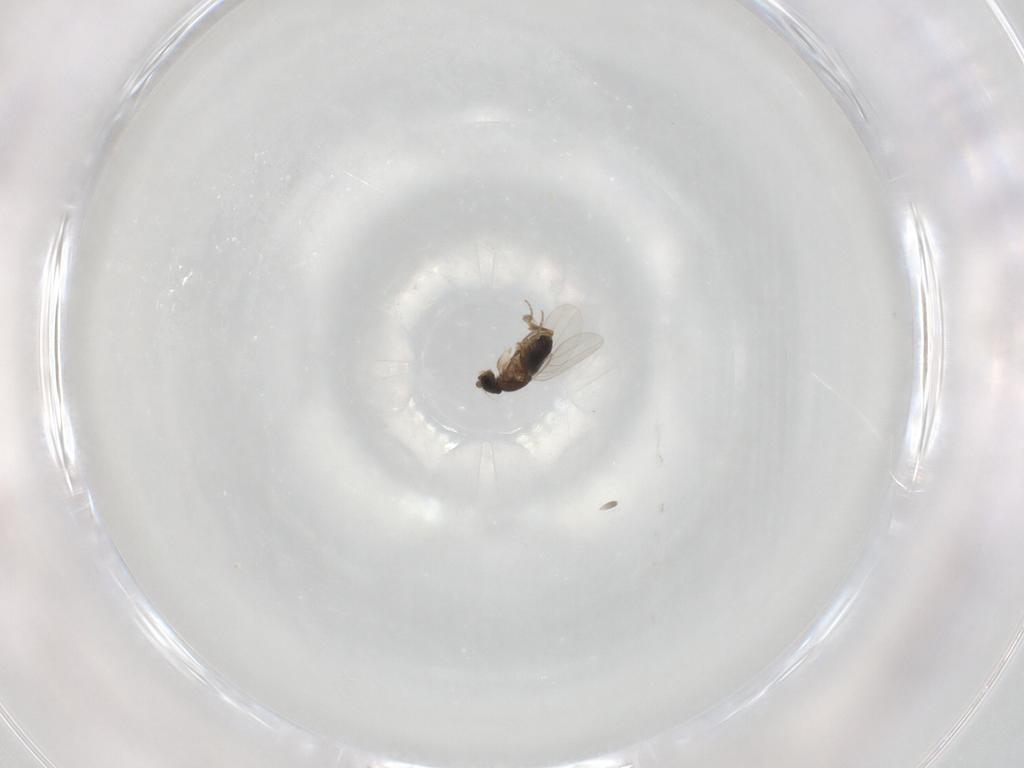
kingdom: Animalia
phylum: Arthropoda
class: Insecta
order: Diptera
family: Phoridae
